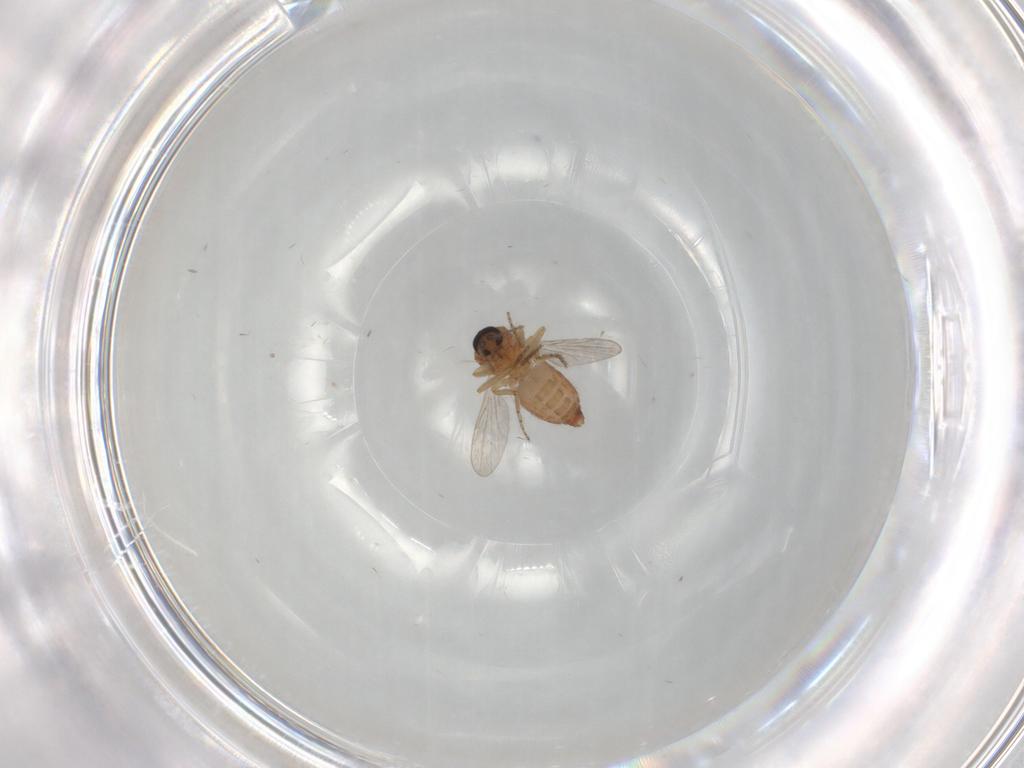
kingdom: Animalia
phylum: Arthropoda
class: Insecta
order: Diptera
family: Ceratopogonidae
